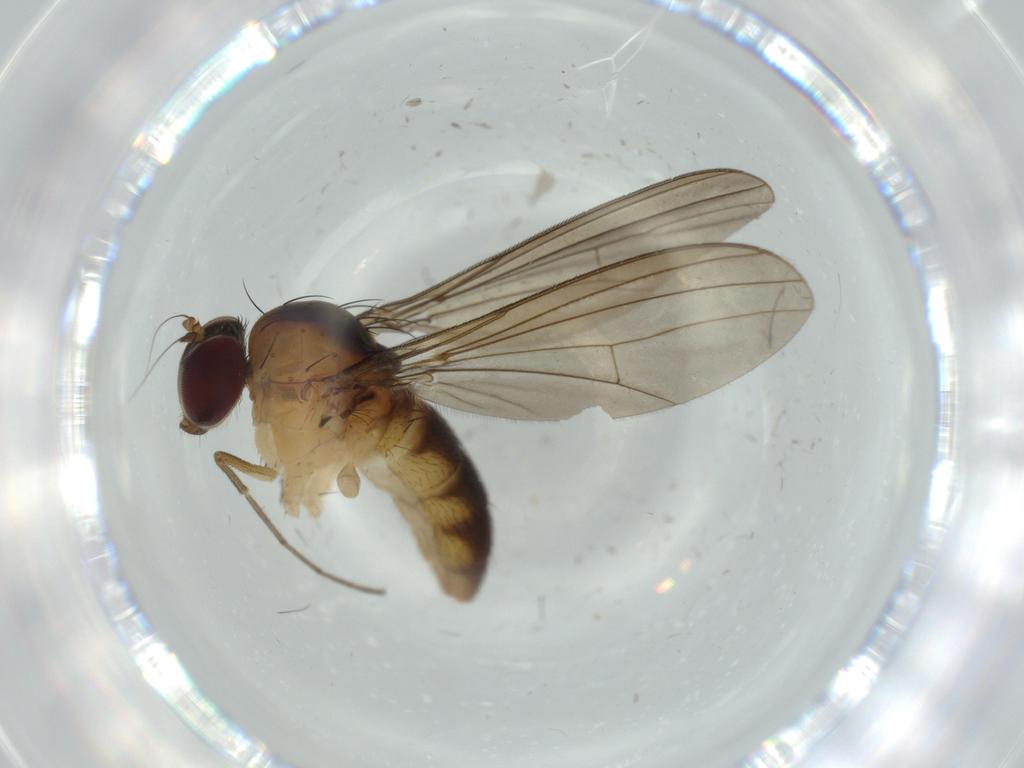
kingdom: Animalia
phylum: Arthropoda
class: Insecta
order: Diptera
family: Dolichopodidae
